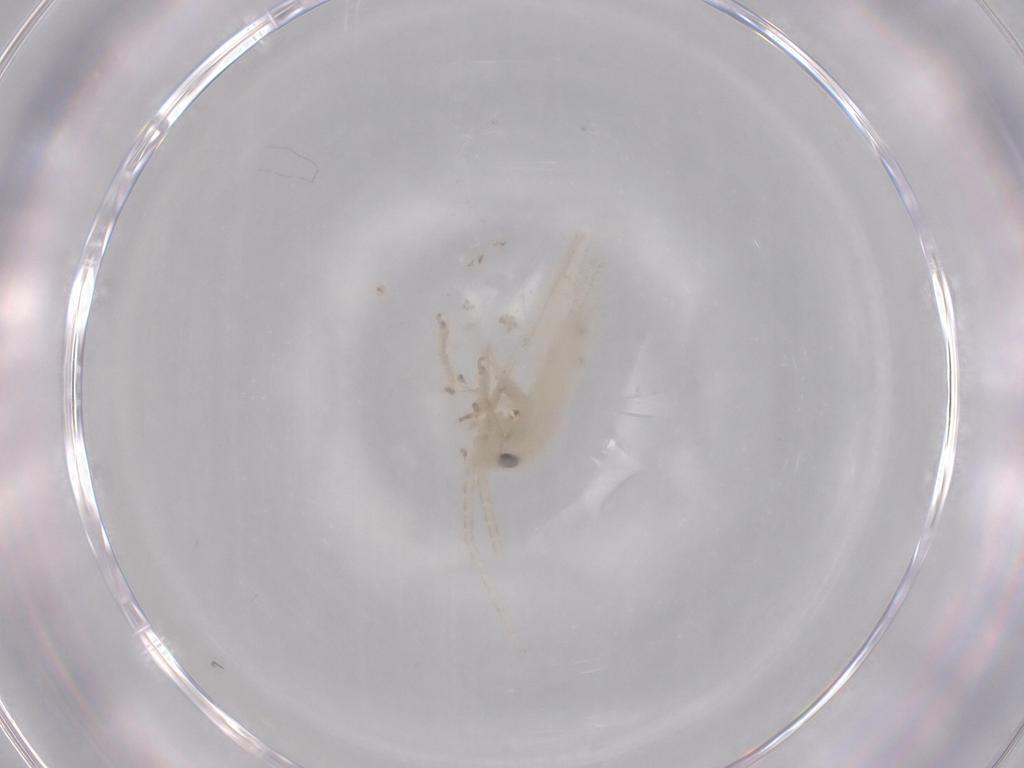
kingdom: Animalia
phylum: Arthropoda
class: Insecta
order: Orthoptera
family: Trigonidiidae
